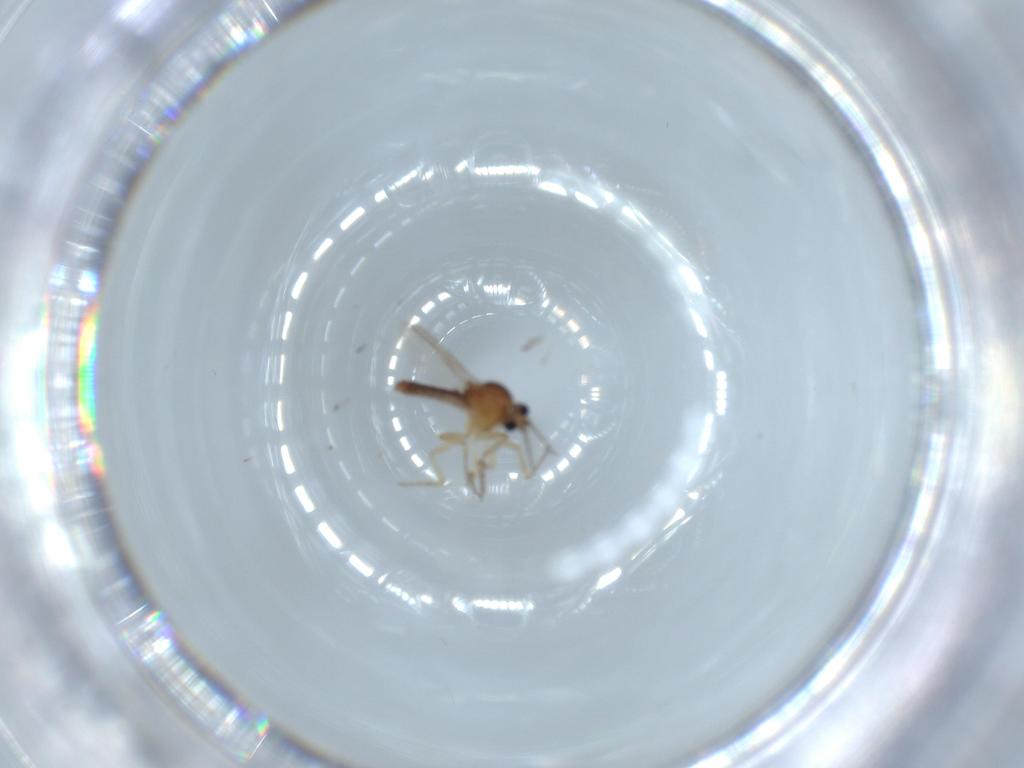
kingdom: Animalia
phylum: Arthropoda
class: Insecta
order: Diptera
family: Ceratopogonidae
